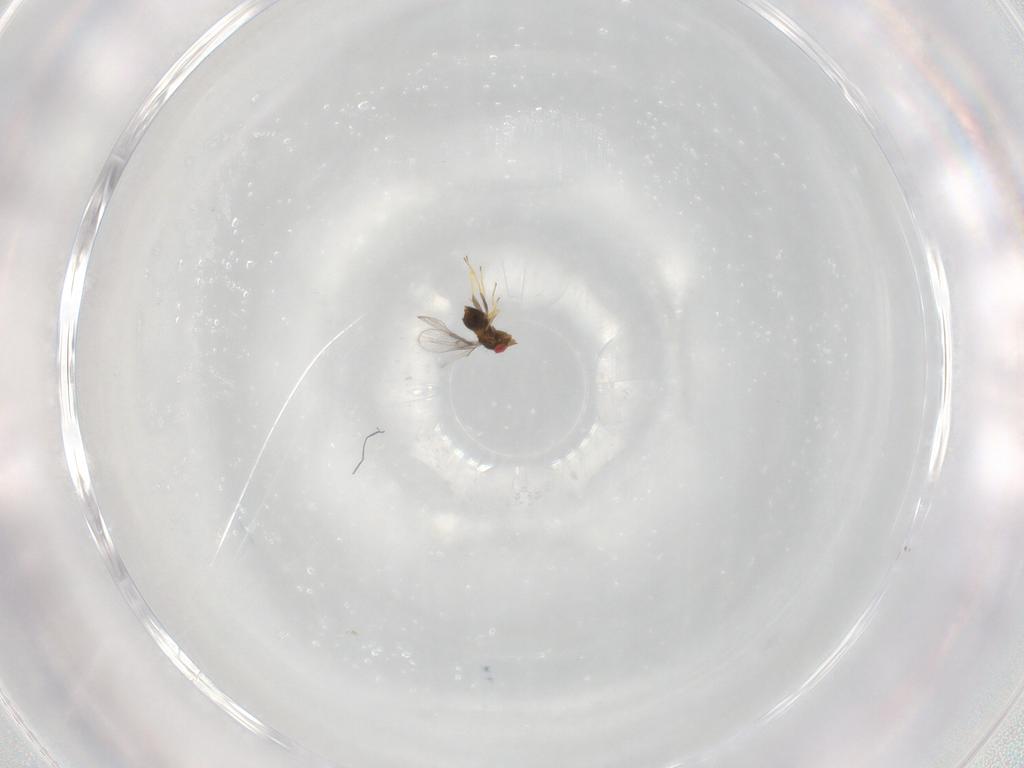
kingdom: Animalia
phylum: Arthropoda
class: Insecta
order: Hymenoptera
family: Trichogrammatidae
